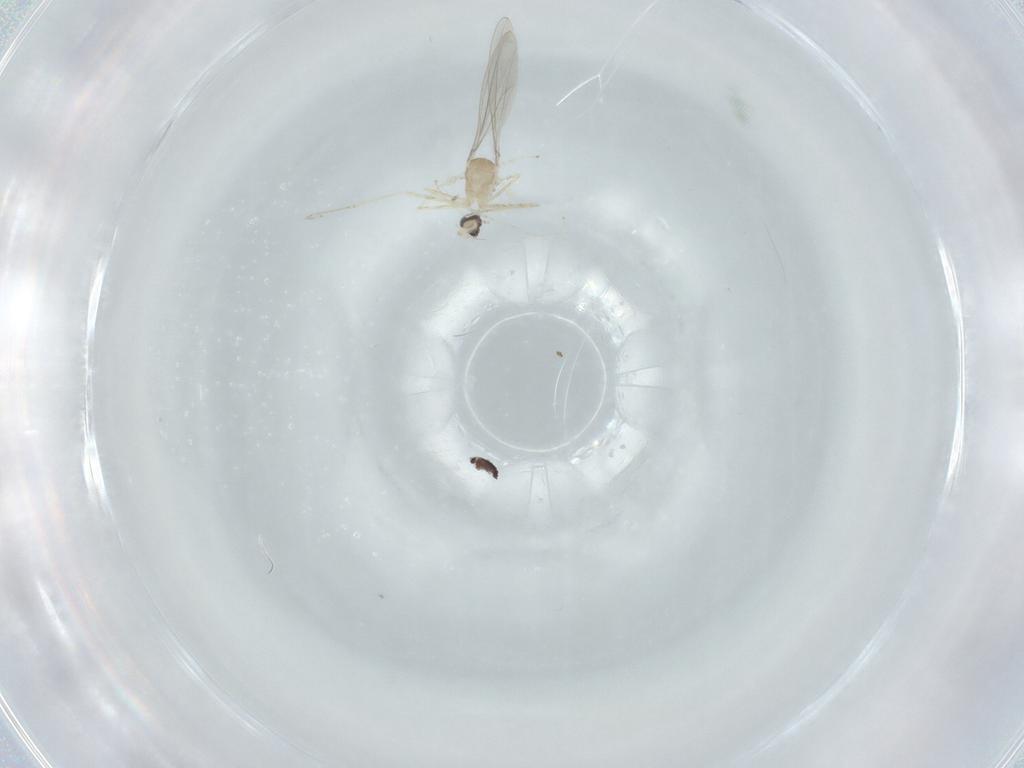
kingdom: Animalia
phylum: Arthropoda
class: Insecta
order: Diptera
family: Cecidomyiidae
